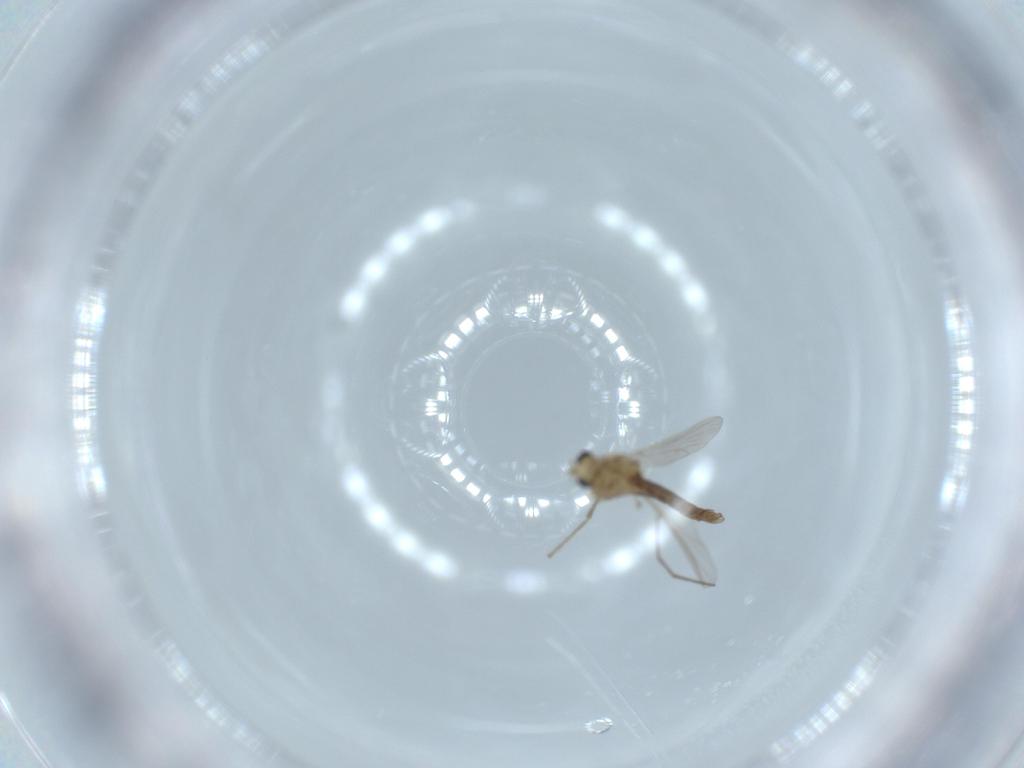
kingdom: Animalia
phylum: Arthropoda
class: Insecta
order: Diptera
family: Chironomidae
